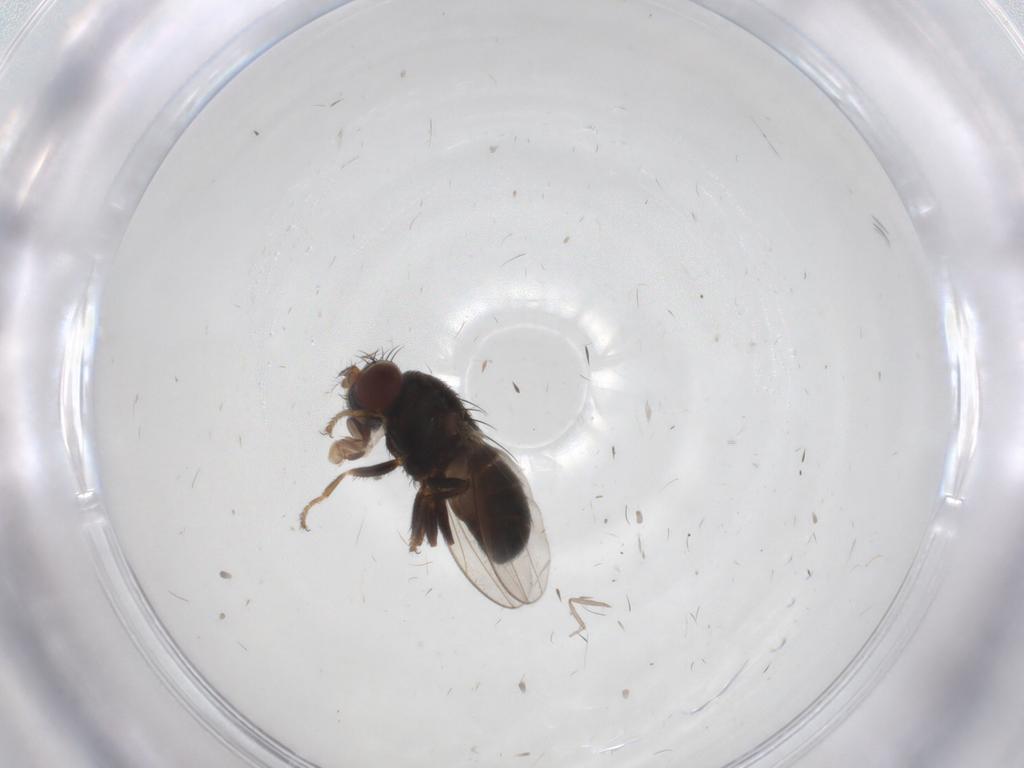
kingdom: Animalia
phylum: Arthropoda
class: Insecta
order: Diptera
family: Cecidomyiidae
